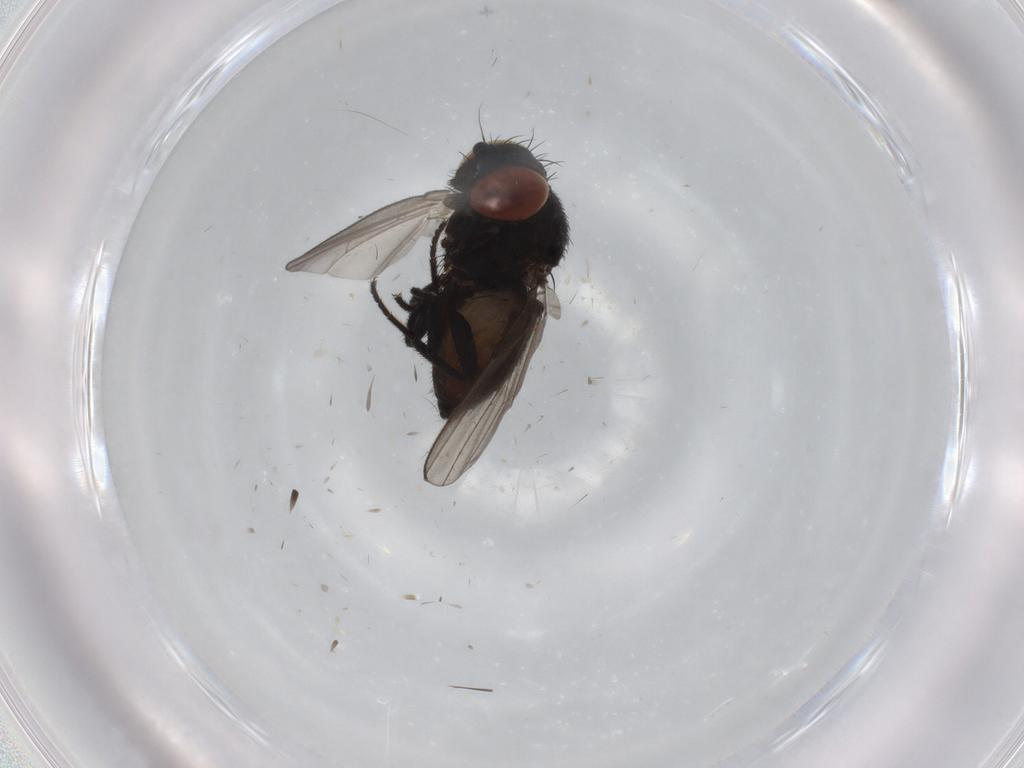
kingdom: Animalia
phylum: Arthropoda
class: Insecta
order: Diptera
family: Milichiidae
